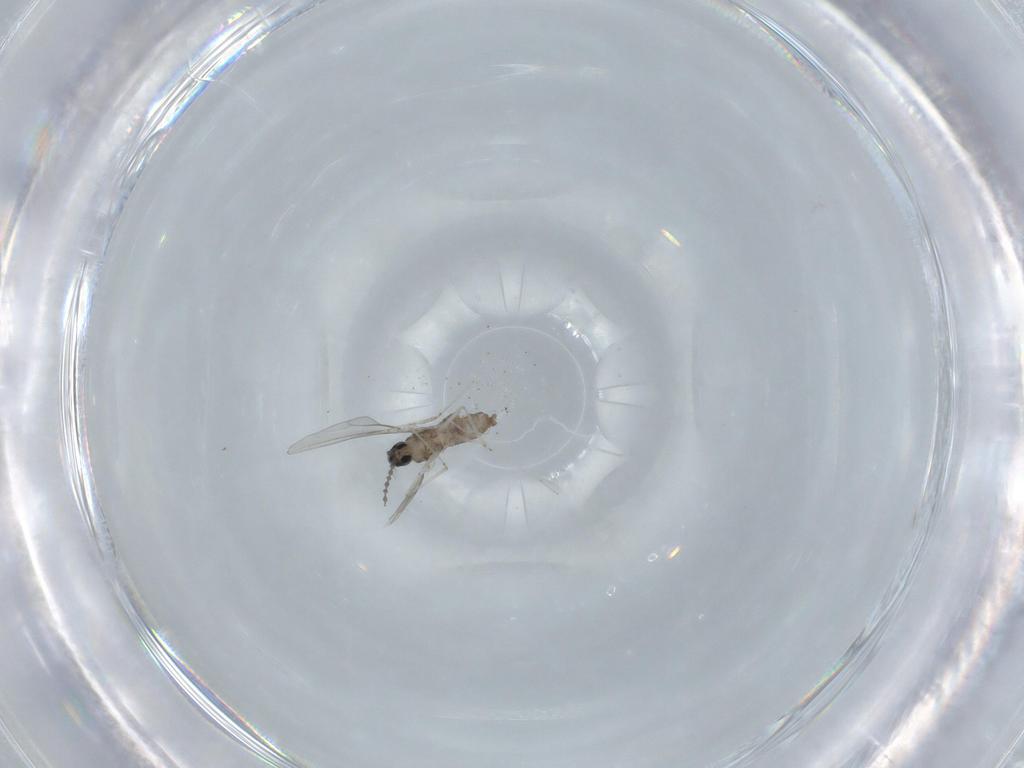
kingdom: Animalia
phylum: Arthropoda
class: Insecta
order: Diptera
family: Cecidomyiidae
